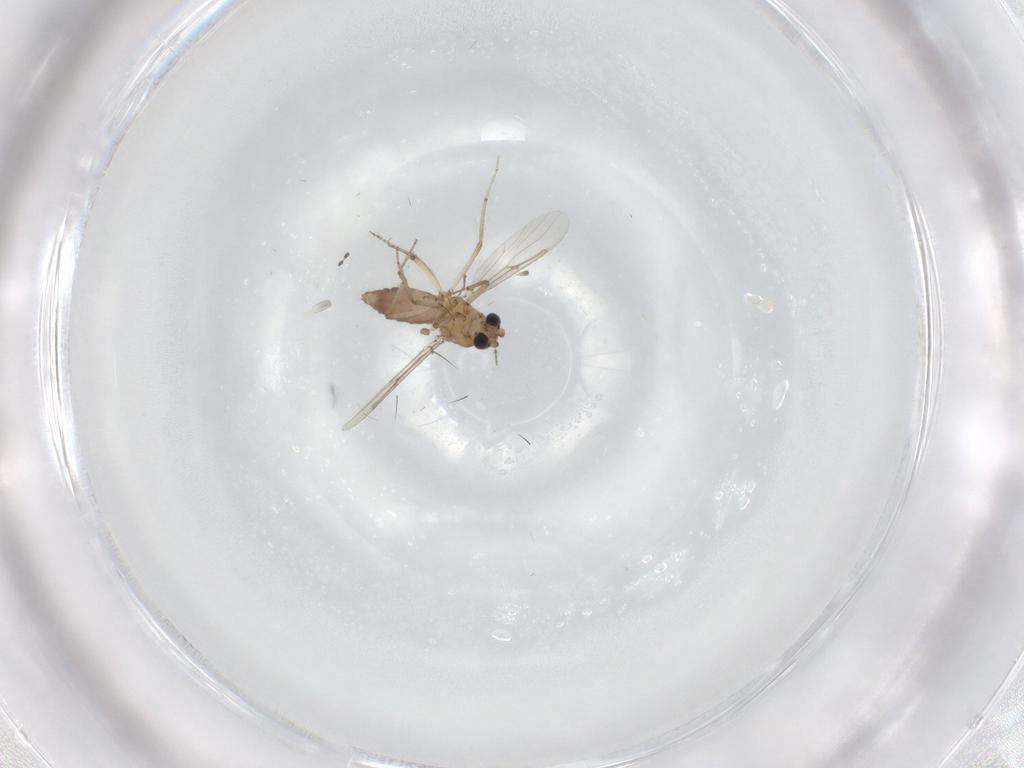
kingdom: Animalia
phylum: Arthropoda
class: Insecta
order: Diptera
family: Ceratopogonidae
